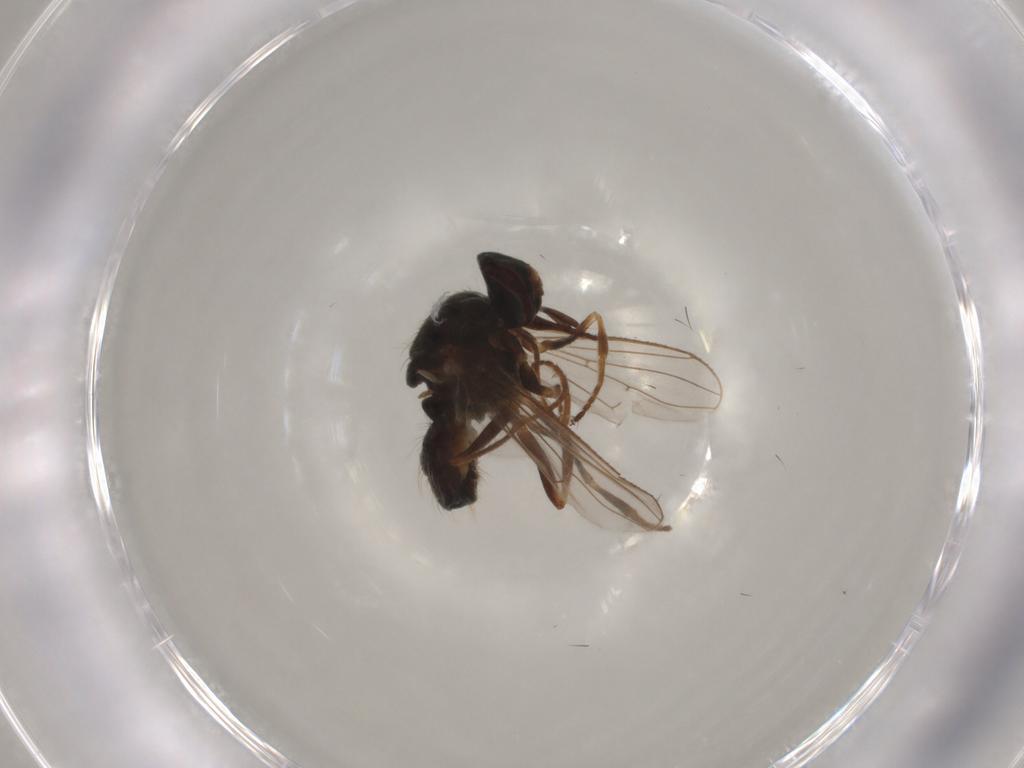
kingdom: Animalia
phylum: Arthropoda
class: Insecta
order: Diptera
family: Muscidae
